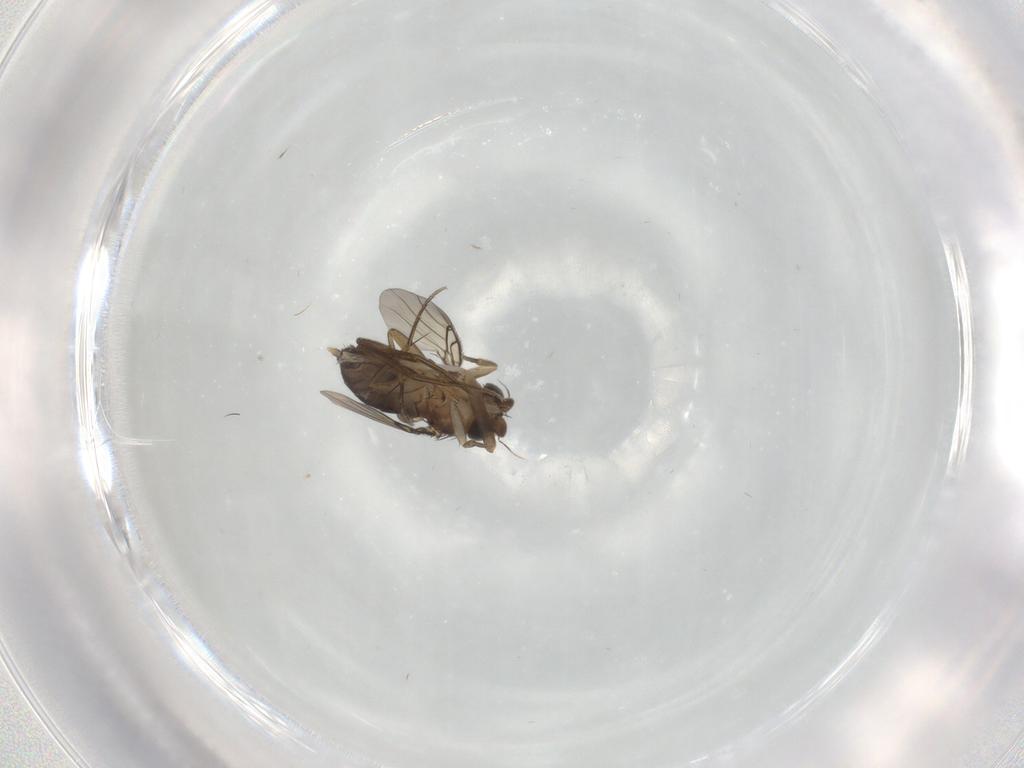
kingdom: Animalia
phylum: Arthropoda
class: Insecta
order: Diptera
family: Phoridae
